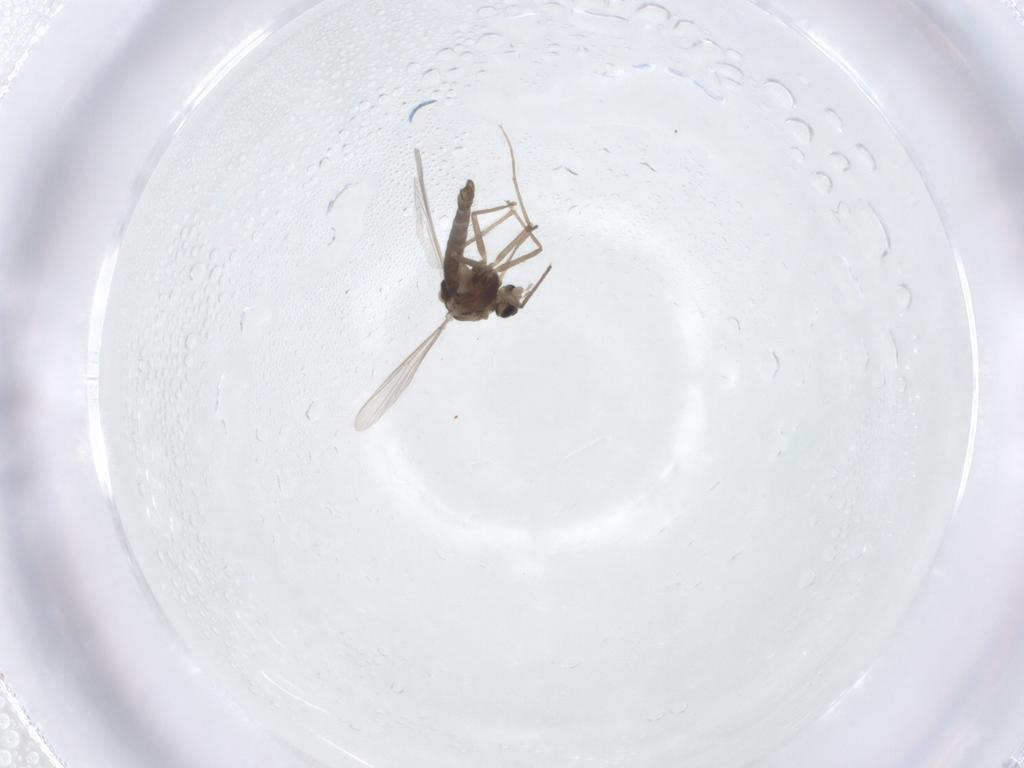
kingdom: Animalia
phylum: Arthropoda
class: Insecta
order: Diptera
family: Chironomidae
